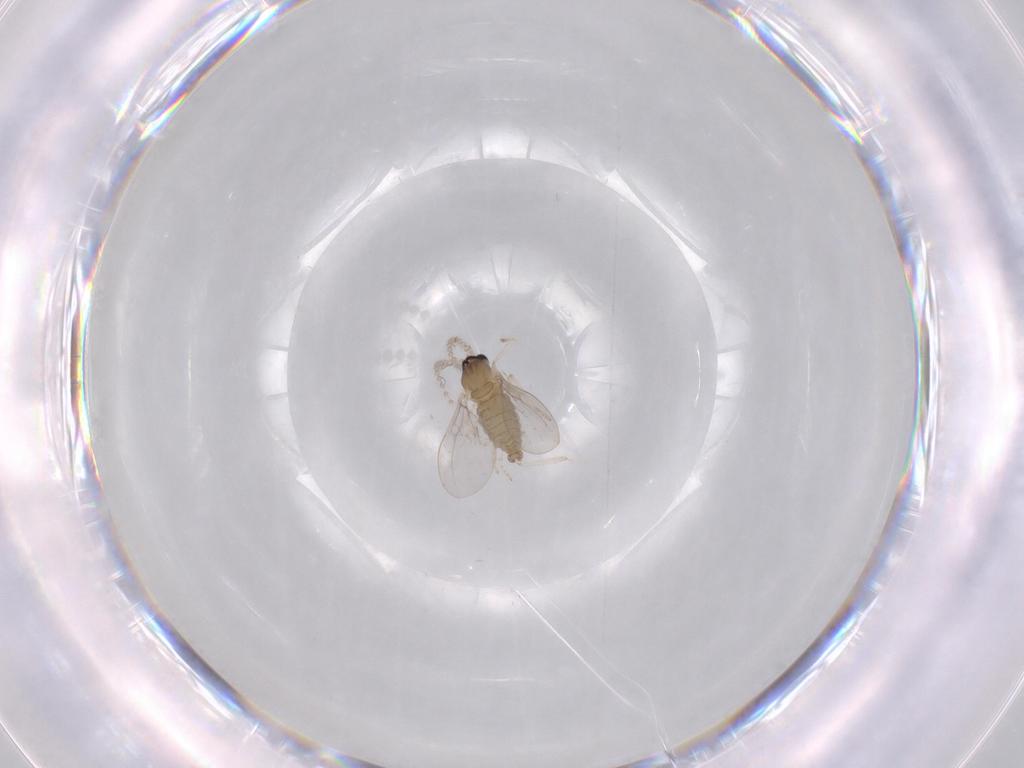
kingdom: Animalia
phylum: Arthropoda
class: Insecta
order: Diptera
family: Cecidomyiidae
